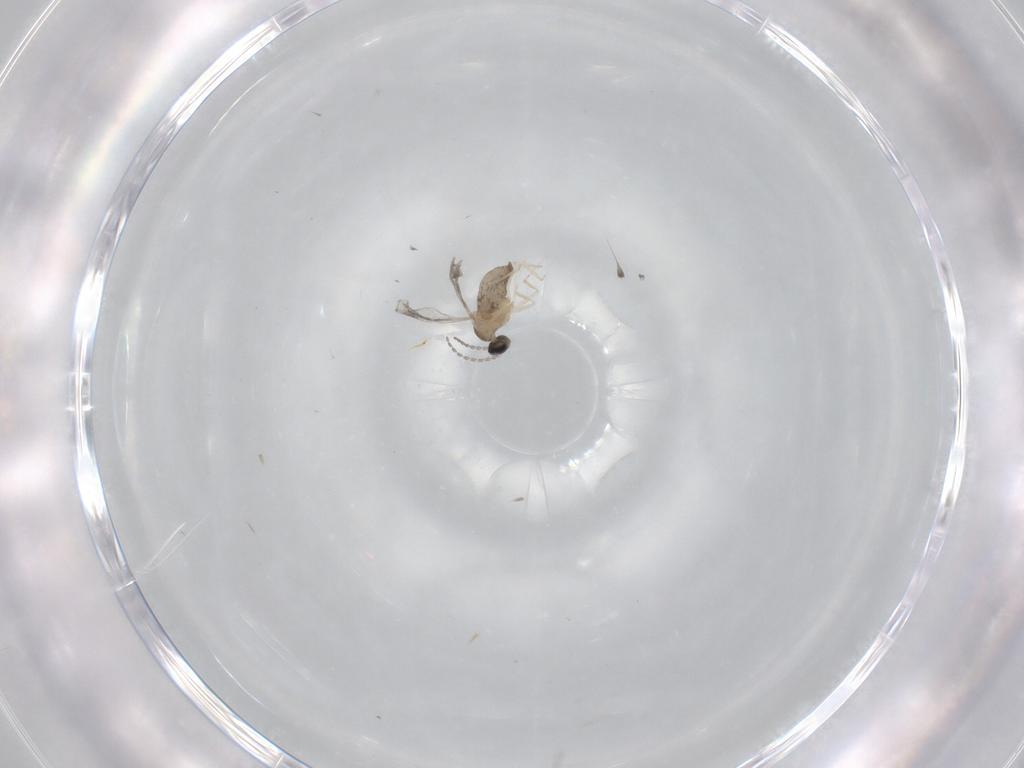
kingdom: Animalia
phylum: Arthropoda
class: Insecta
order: Diptera
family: Cecidomyiidae
